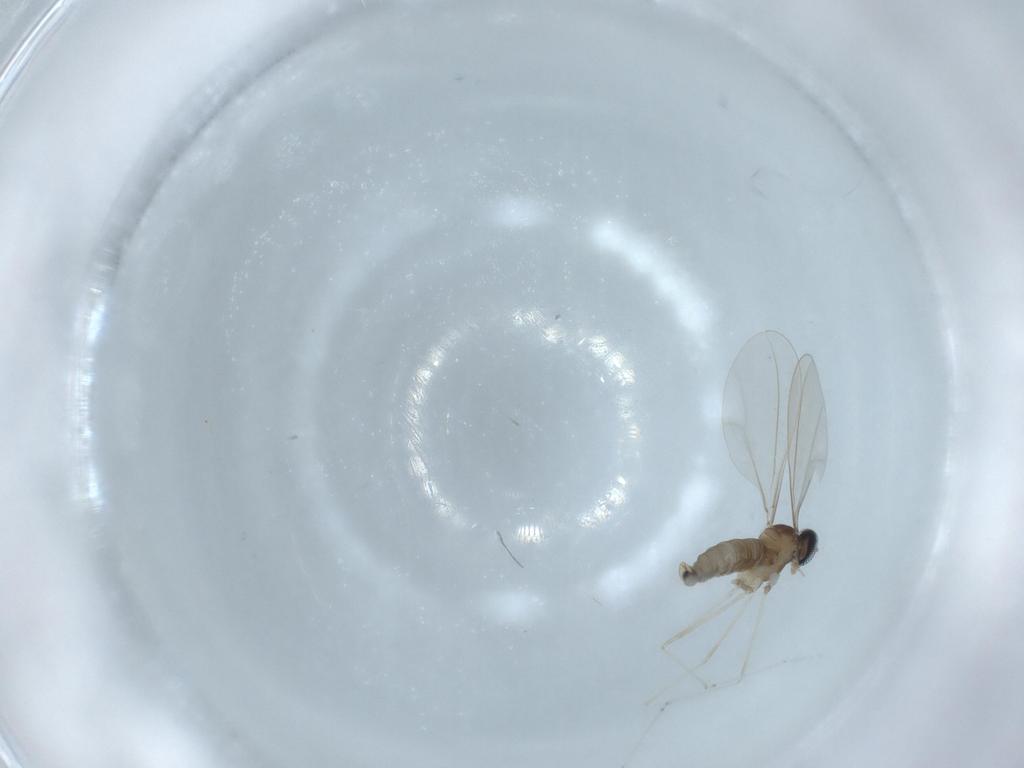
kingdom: Animalia
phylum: Arthropoda
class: Insecta
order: Diptera
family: Sciaridae
